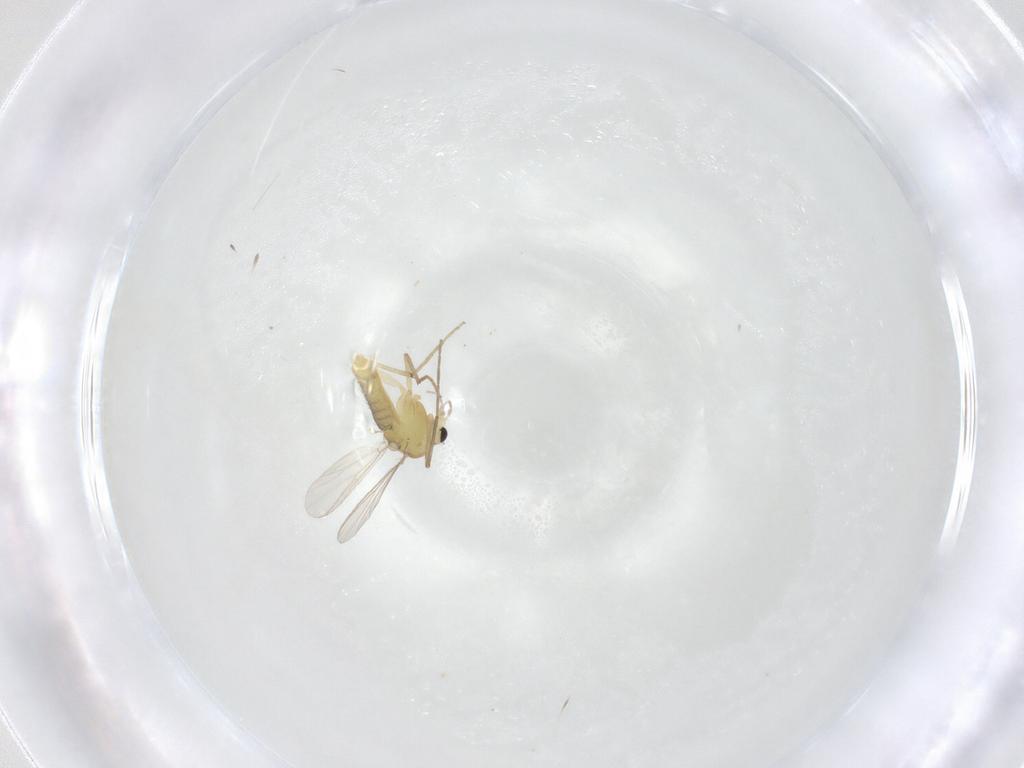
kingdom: Animalia
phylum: Arthropoda
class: Insecta
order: Diptera
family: Chironomidae
